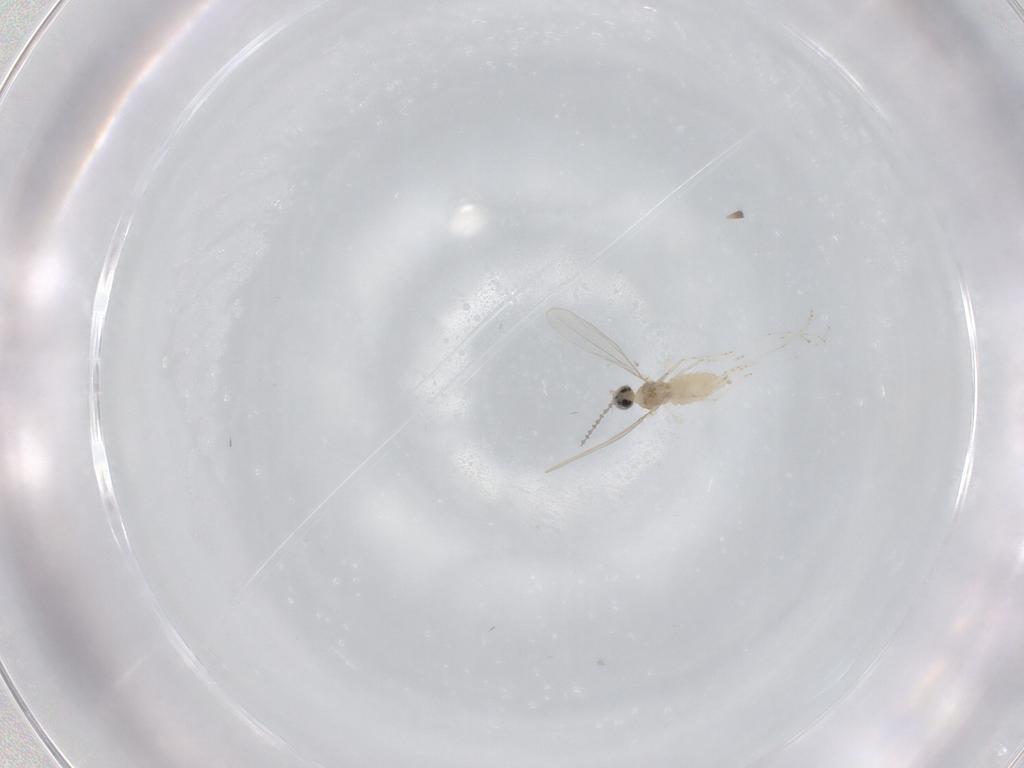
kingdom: Animalia
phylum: Arthropoda
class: Insecta
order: Diptera
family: Cecidomyiidae
